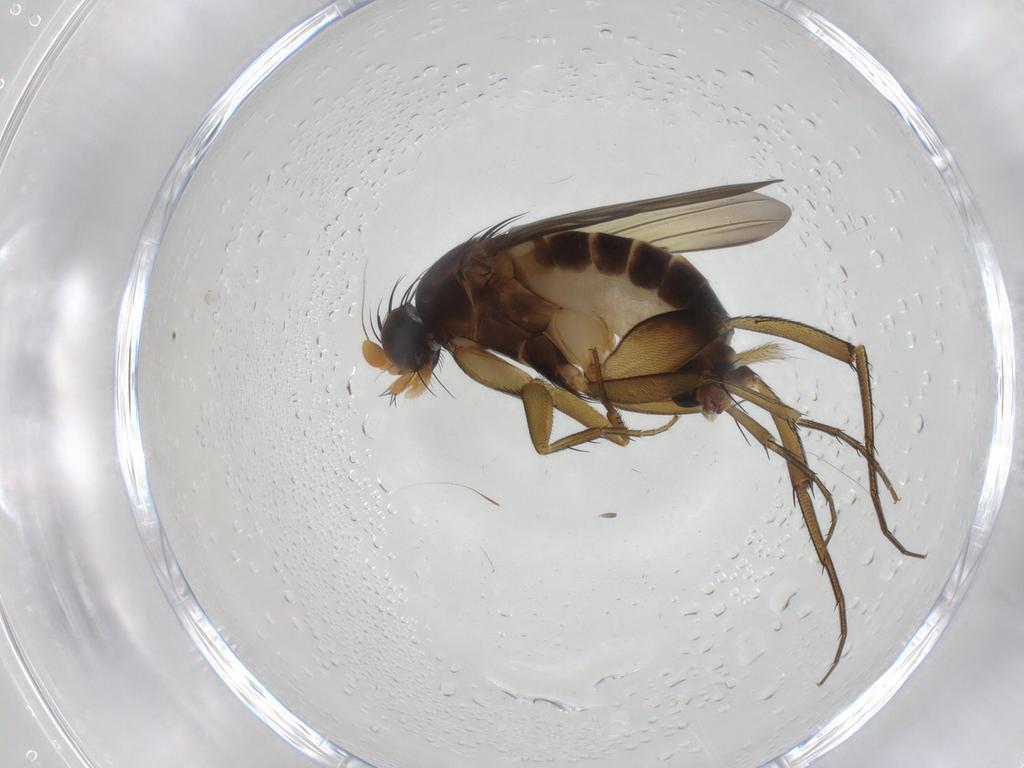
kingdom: Animalia
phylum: Arthropoda
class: Insecta
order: Diptera
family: Phoridae
